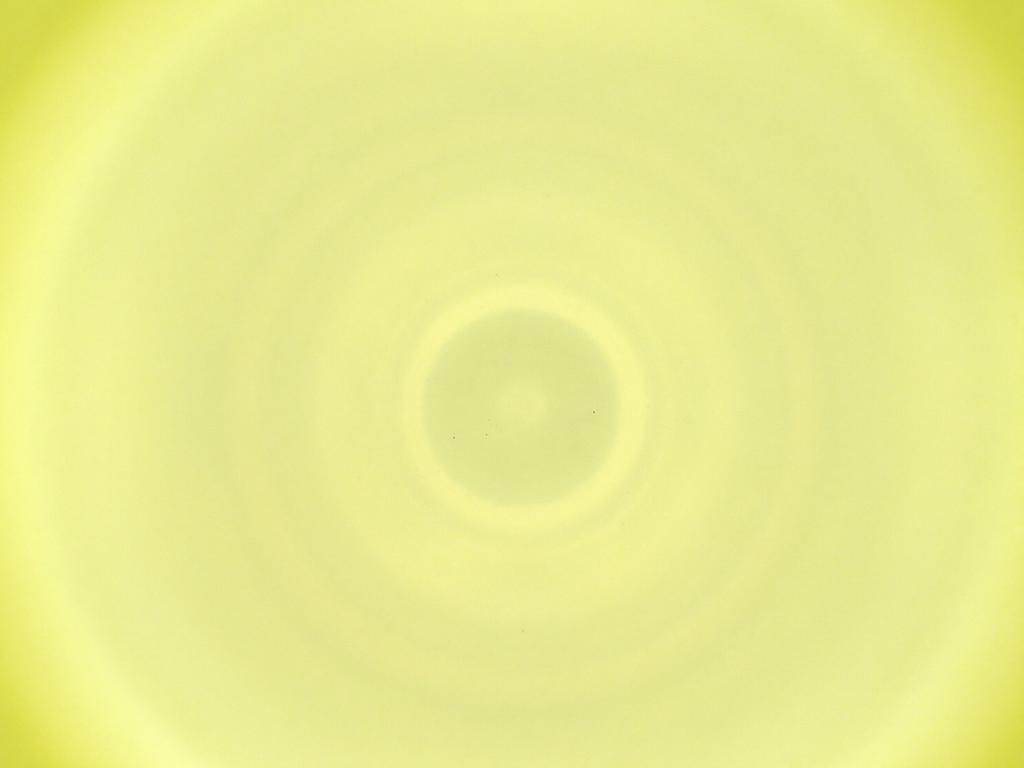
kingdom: Animalia
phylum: Arthropoda
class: Insecta
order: Diptera
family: Cecidomyiidae
